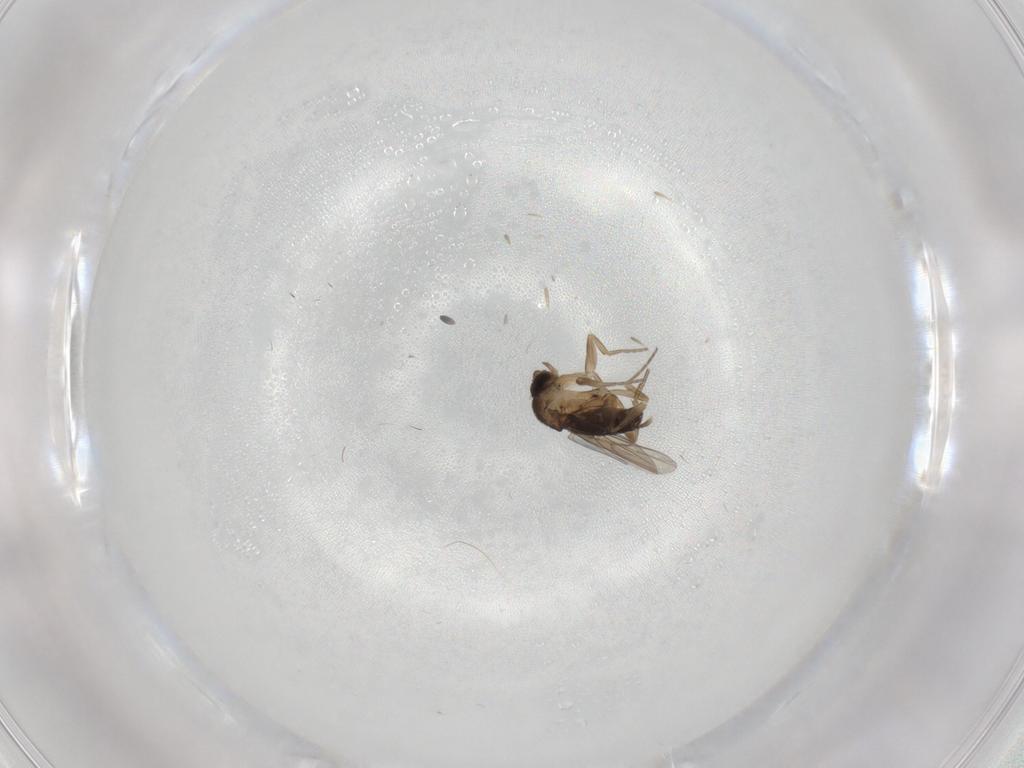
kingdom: Animalia
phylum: Arthropoda
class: Insecta
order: Diptera
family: Phoridae
